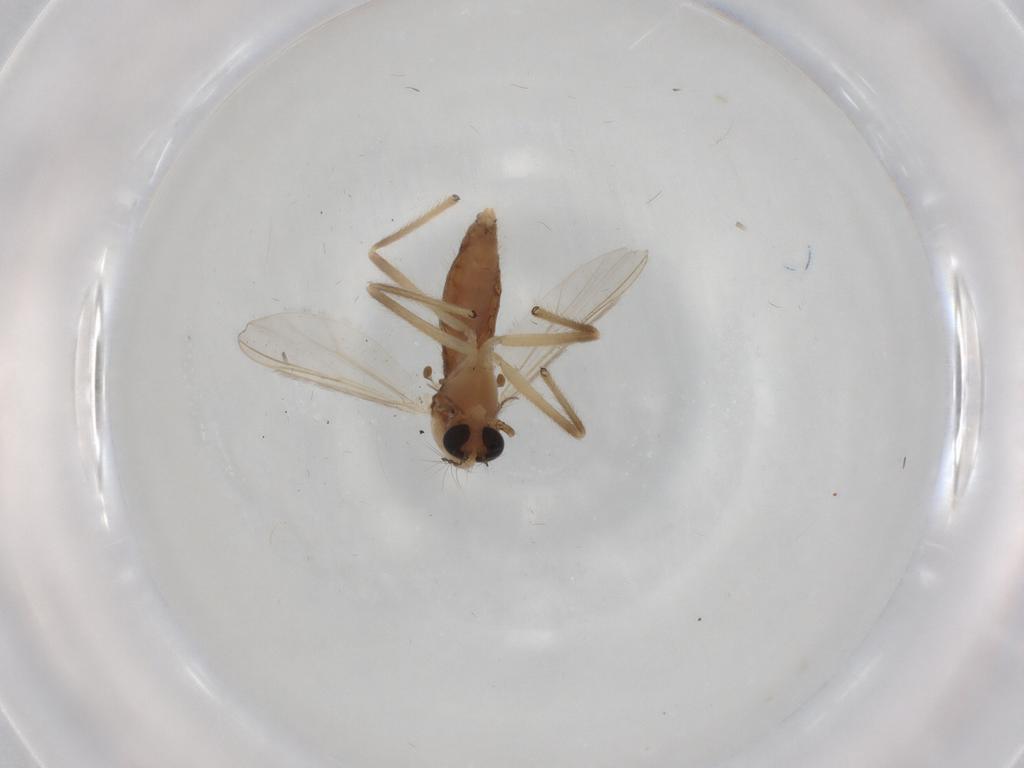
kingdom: Animalia
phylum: Arthropoda
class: Insecta
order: Diptera
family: Chironomidae
